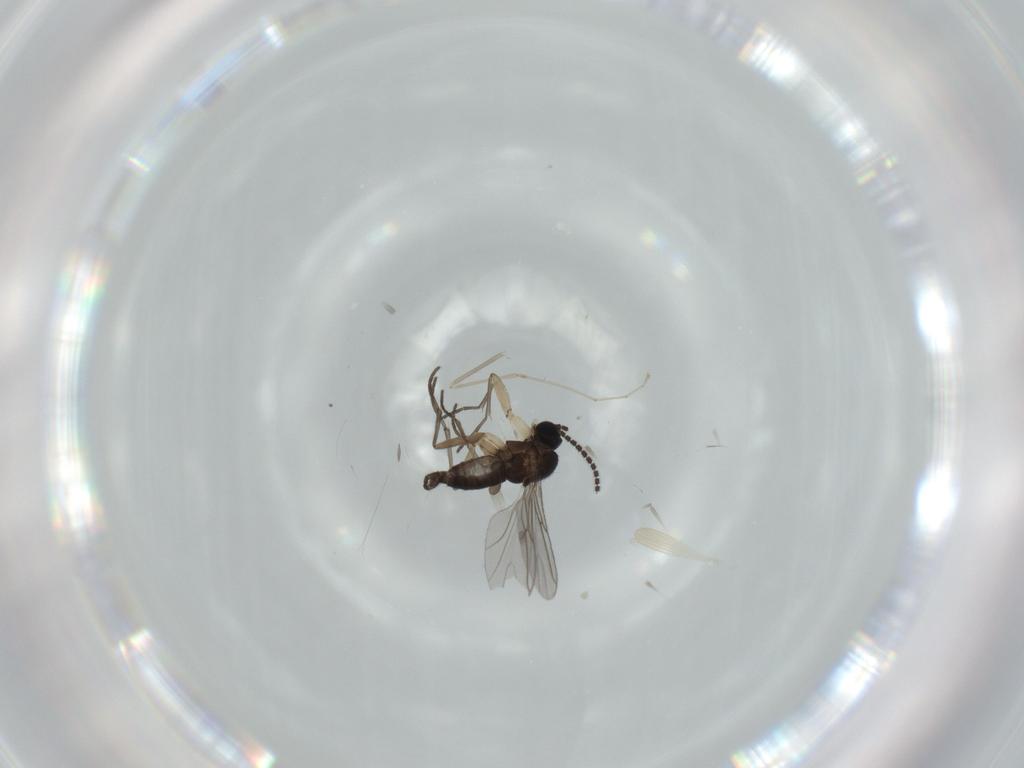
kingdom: Animalia
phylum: Arthropoda
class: Insecta
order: Diptera
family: Sciaridae
